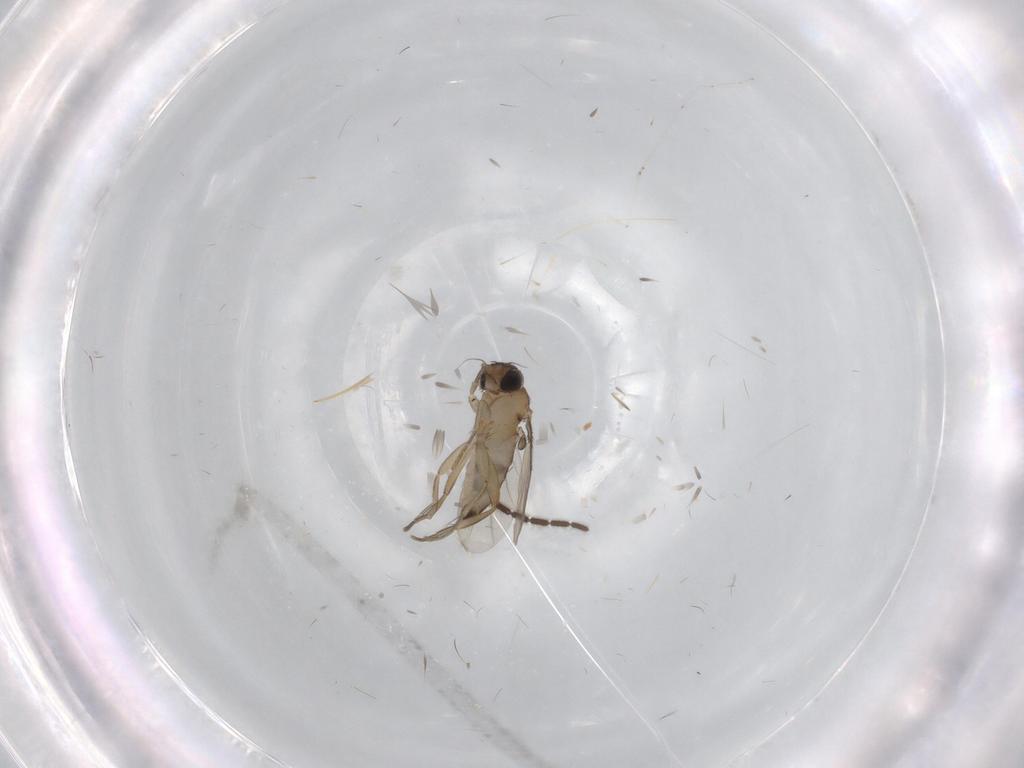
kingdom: Animalia
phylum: Arthropoda
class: Insecta
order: Diptera
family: Phoridae
